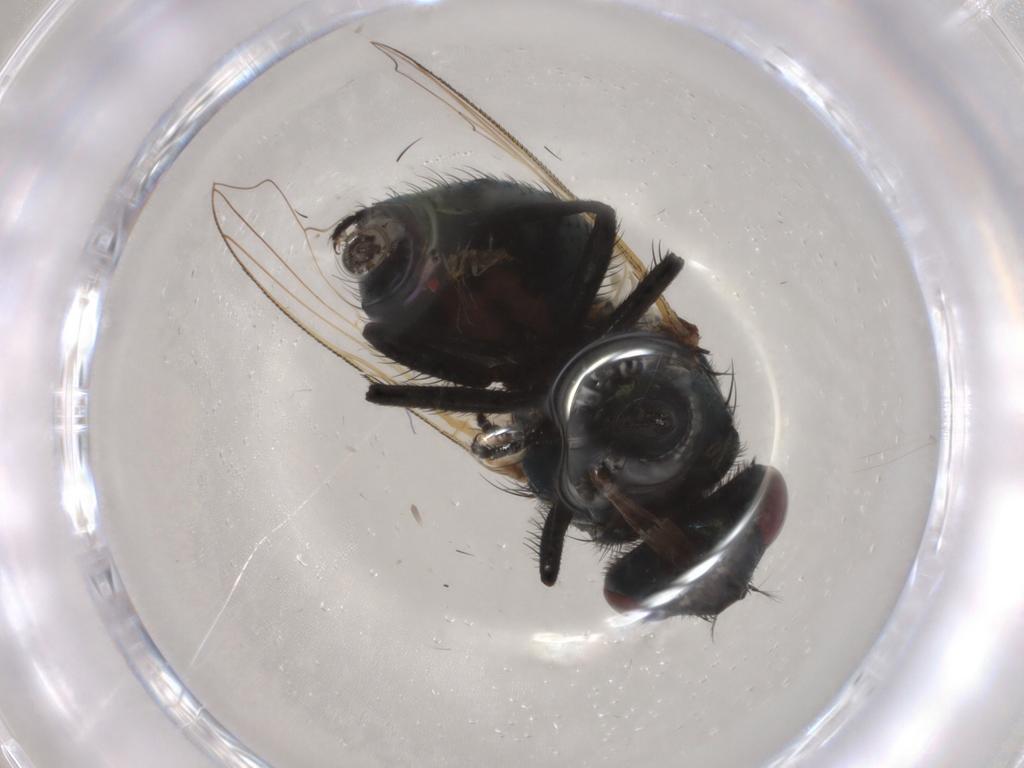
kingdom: Animalia
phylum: Arthropoda
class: Insecta
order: Diptera
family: Muscidae
